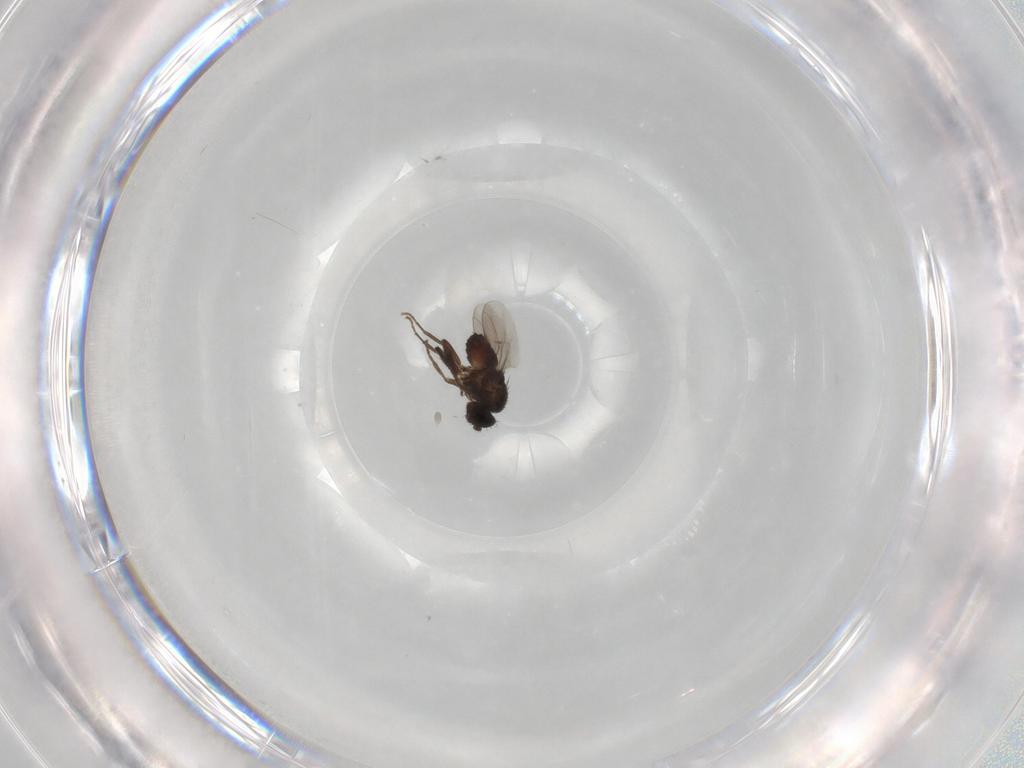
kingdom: Animalia
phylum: Arthropoda
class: Insecta
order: Diptera
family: Sphaeroceridae
